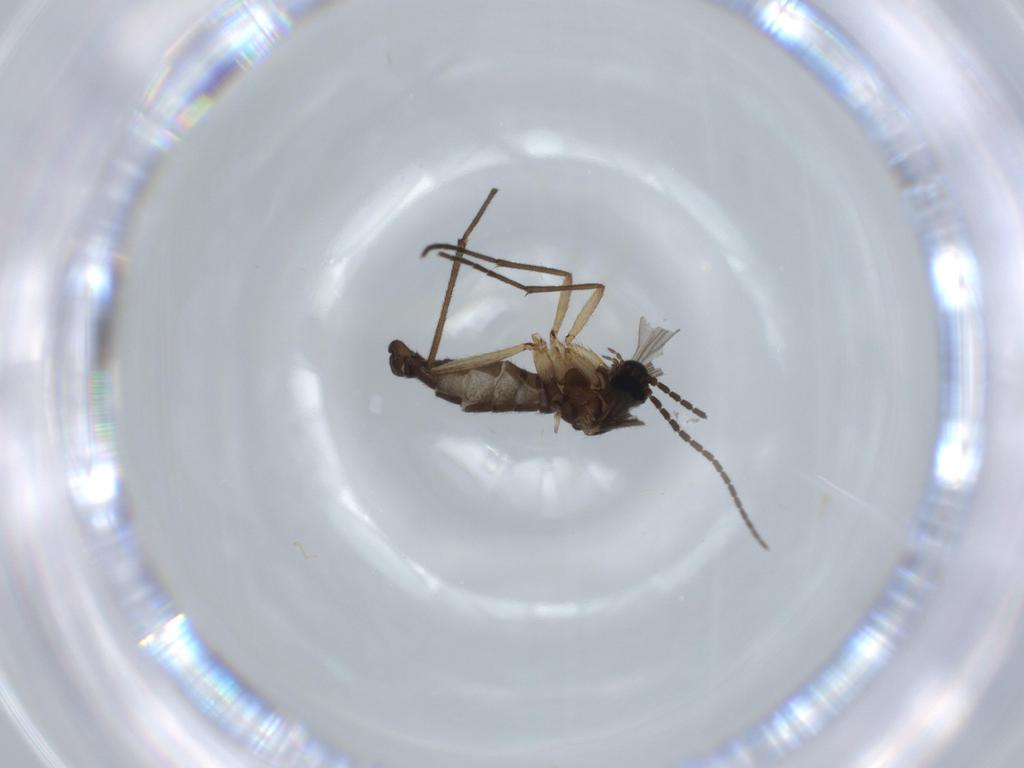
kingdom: Animalia
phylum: Arthropoda
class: Insecta
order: Diptera
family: Sciaridae
